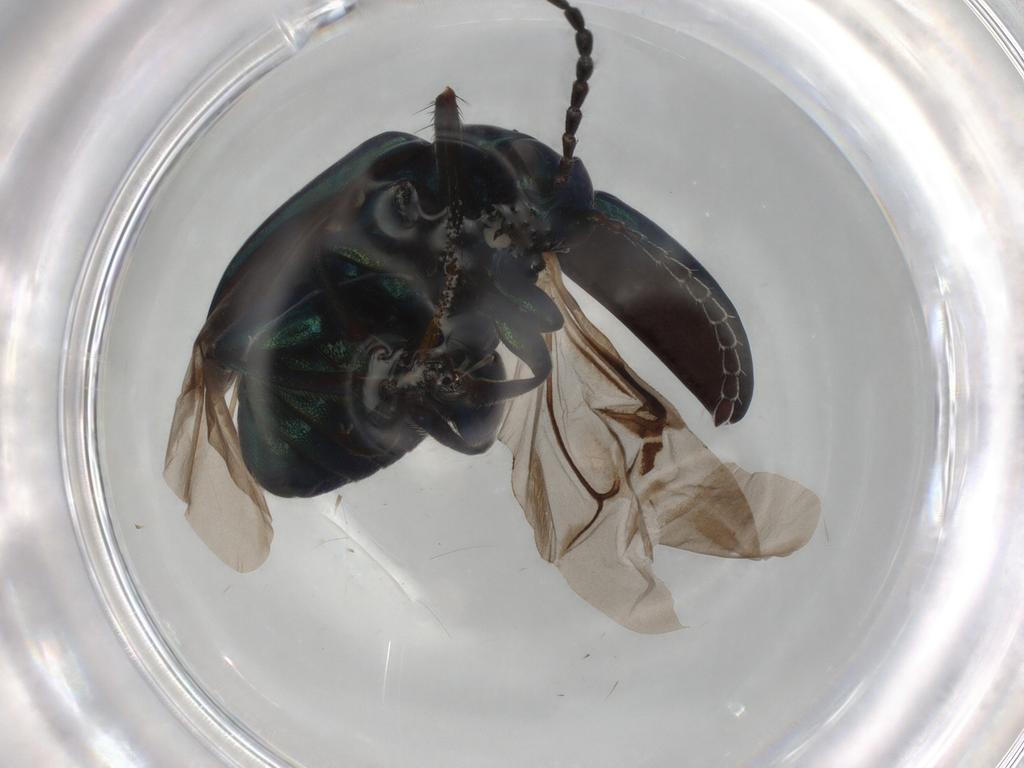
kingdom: Animalia
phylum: Arthropoda
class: Insecta
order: Coleoptera
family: Chrysomelidae
